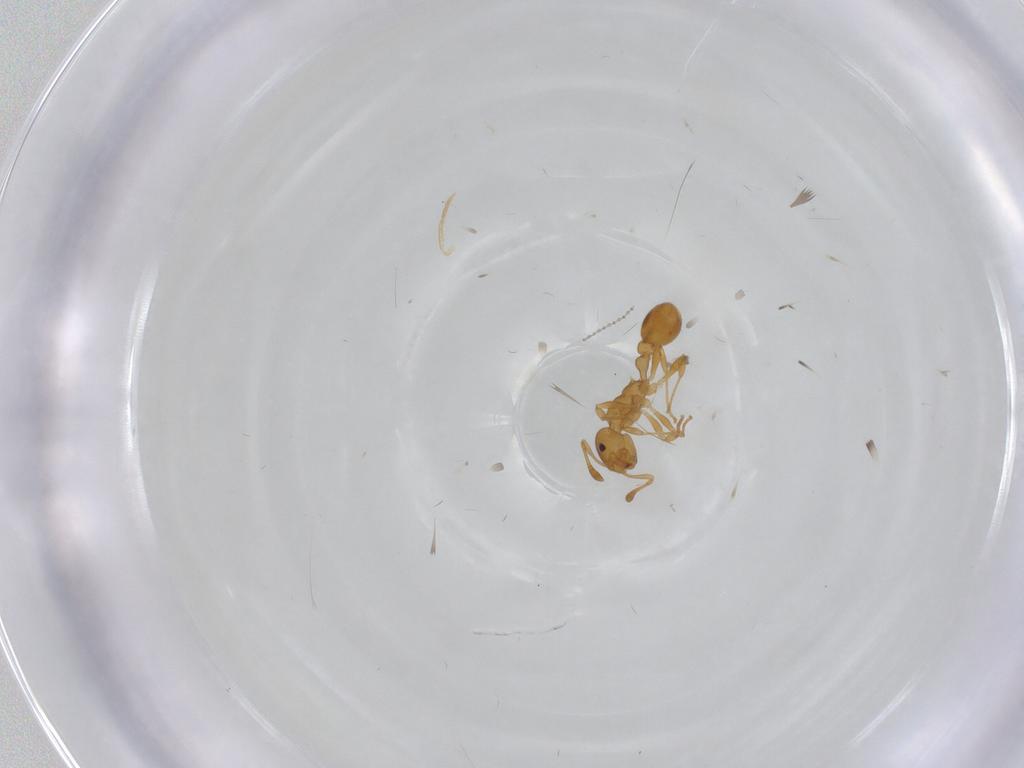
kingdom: Animalia
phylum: Arthropoda
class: Insecta
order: Hymenoptera
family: Formicidae
